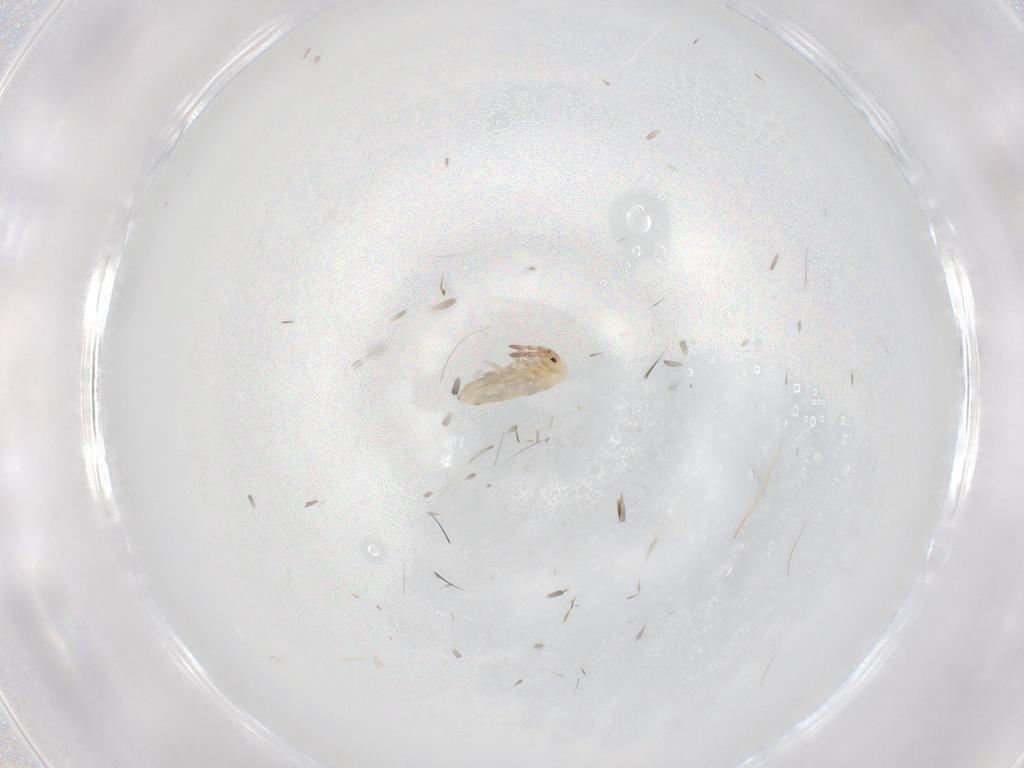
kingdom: Animalia
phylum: Arthropoda
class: Collembola
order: Entomobryomorpha
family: Entomobryidae
